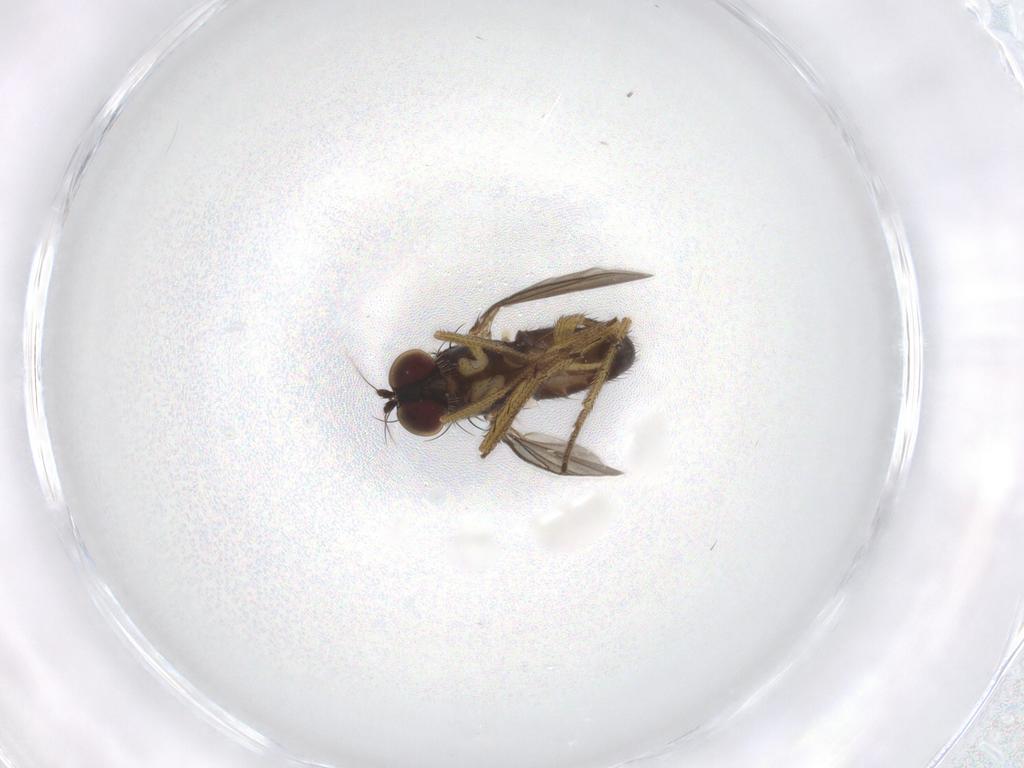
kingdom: Animalia
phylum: Arthropoda
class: Insecta
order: Diptera
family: Dolichopodidae
